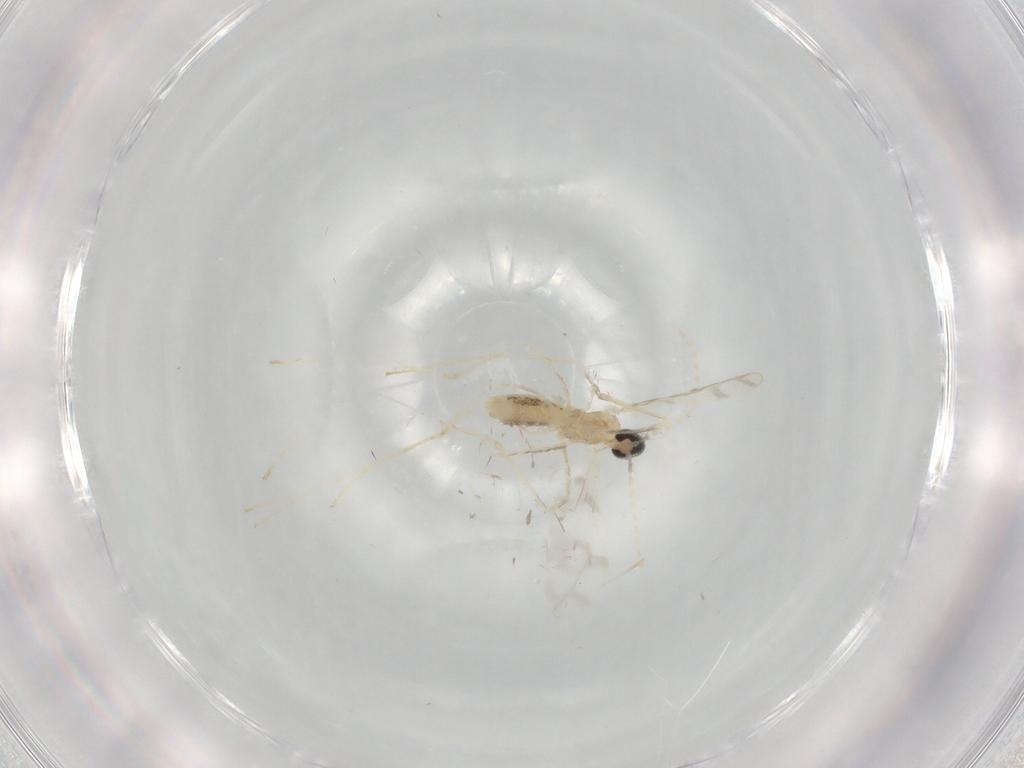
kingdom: Animalia
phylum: Arthropoda
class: Insecta
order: Diptera
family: Cecidomyiidae
